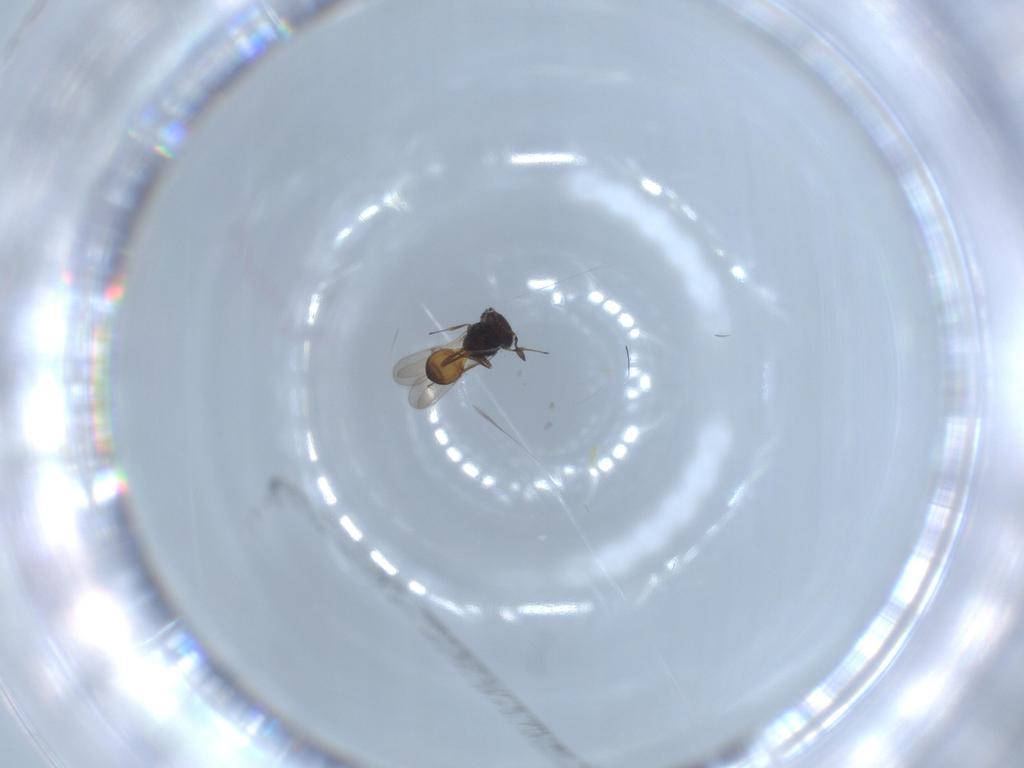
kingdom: Animalia
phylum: Arthropoda
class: Insecta
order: Hymenoptera
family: Scelionidae
